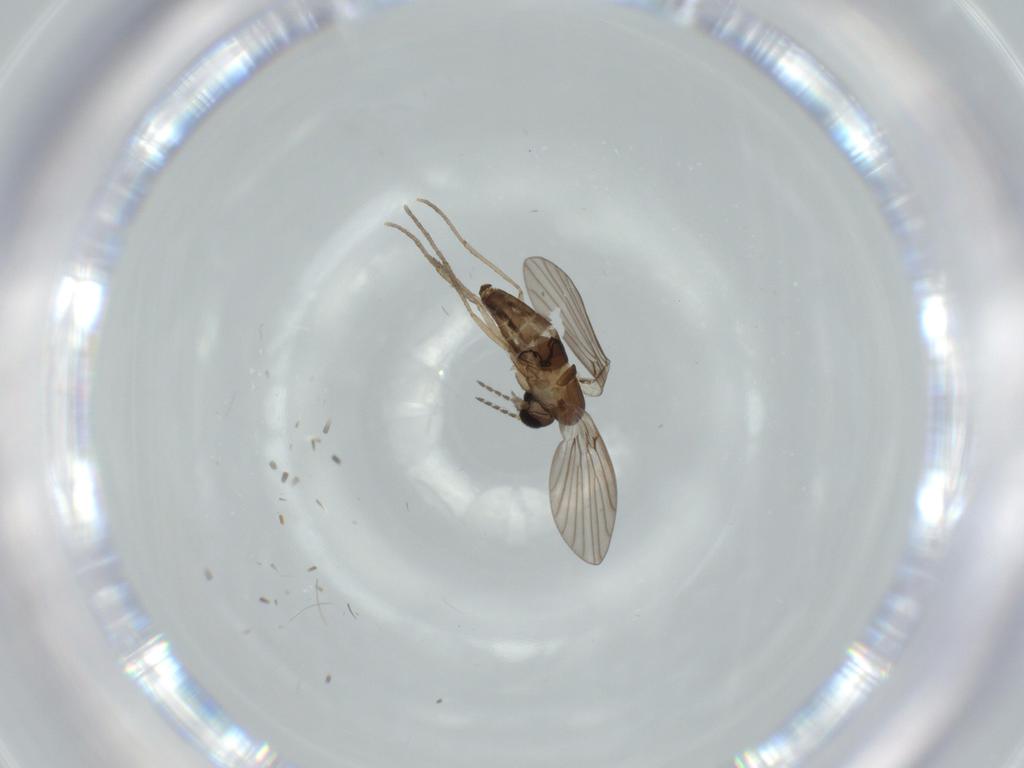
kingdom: Animalia
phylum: Arthropoda
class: Insecta
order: Diptera
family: Psychodidae
